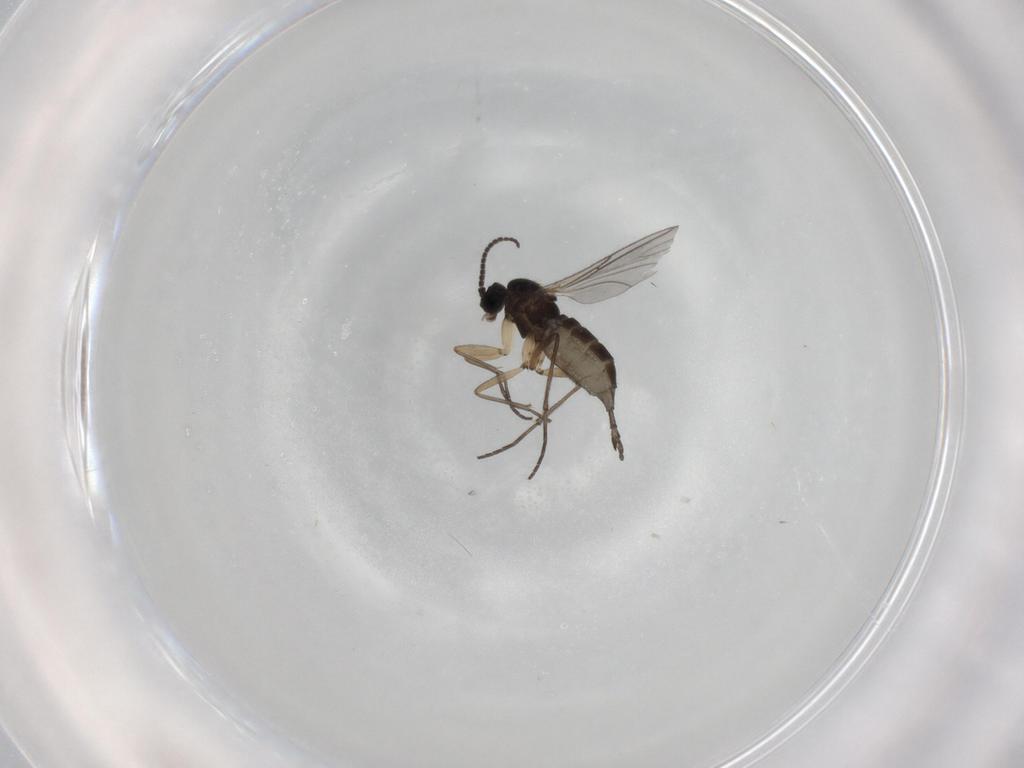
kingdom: Animalia
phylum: Arthropoda
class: Insecta
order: Diptera
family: Sciaridae
